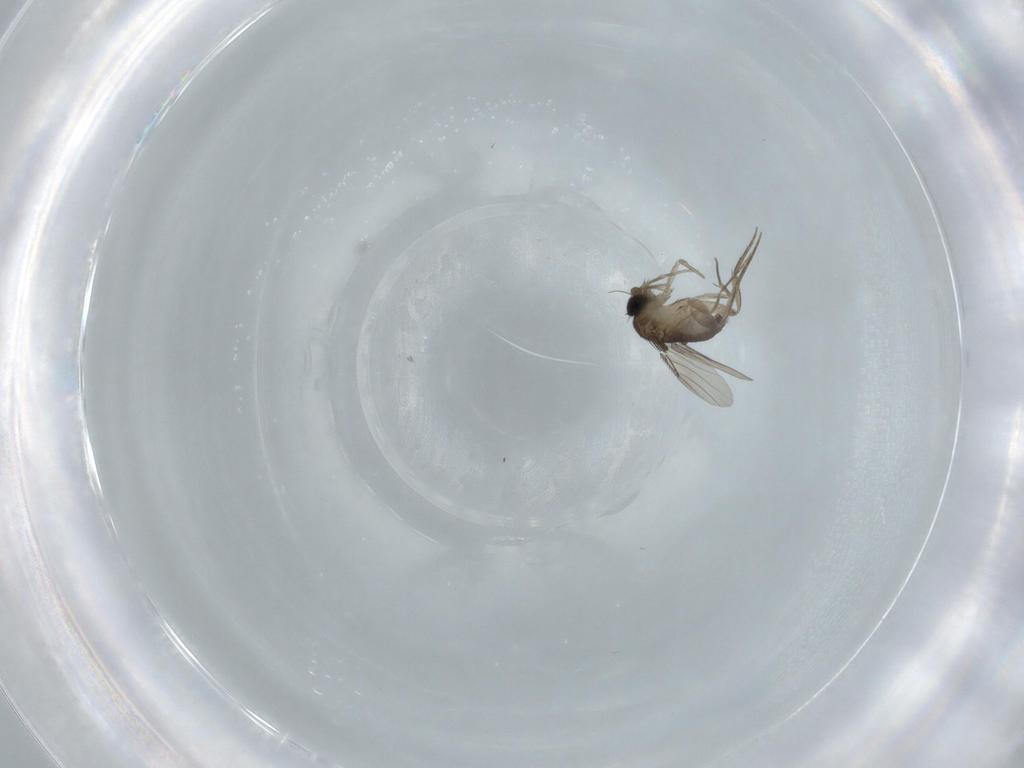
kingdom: Animalia
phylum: Arthropoda
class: Insecta
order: Diptera
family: Phoridae
